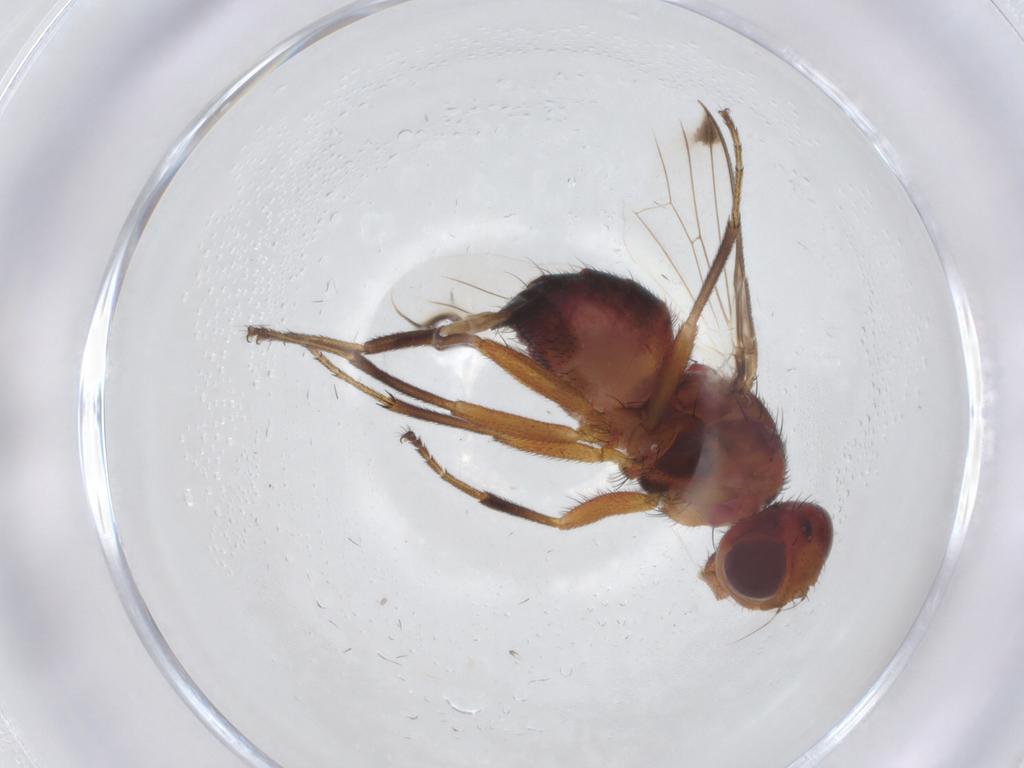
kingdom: Animalia
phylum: Arthropoda
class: Insecta
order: Diptera
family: Richardiidae
